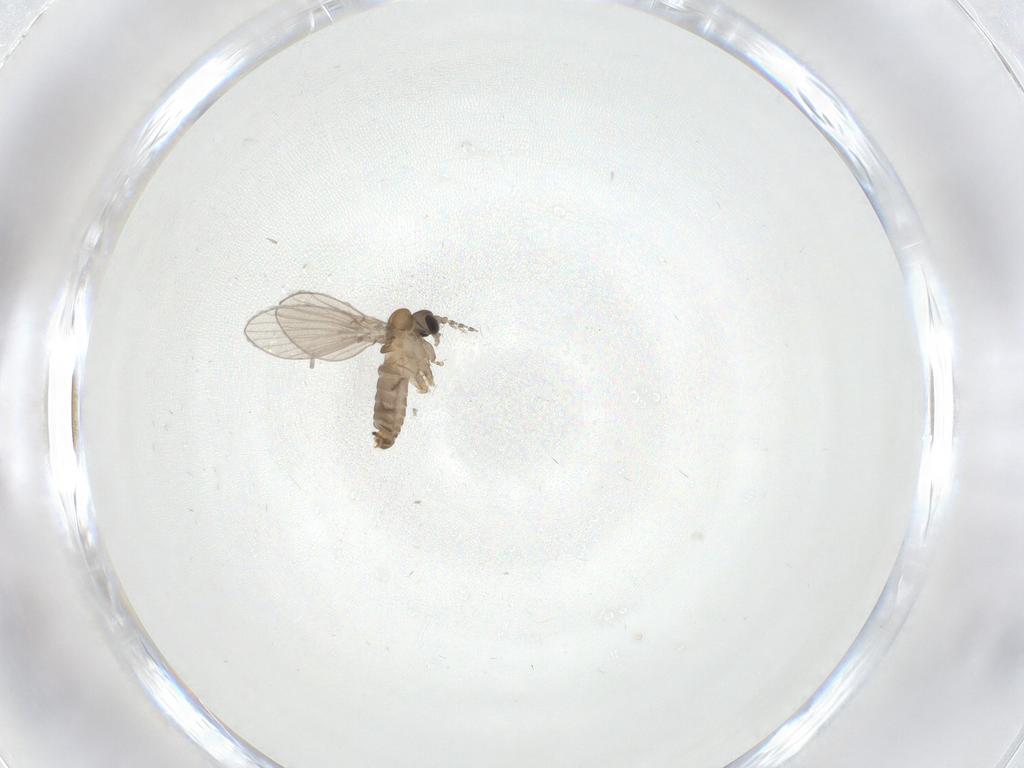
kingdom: Animalia
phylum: Arthropoda
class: Insecta
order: Diptera
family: Psychodidae
